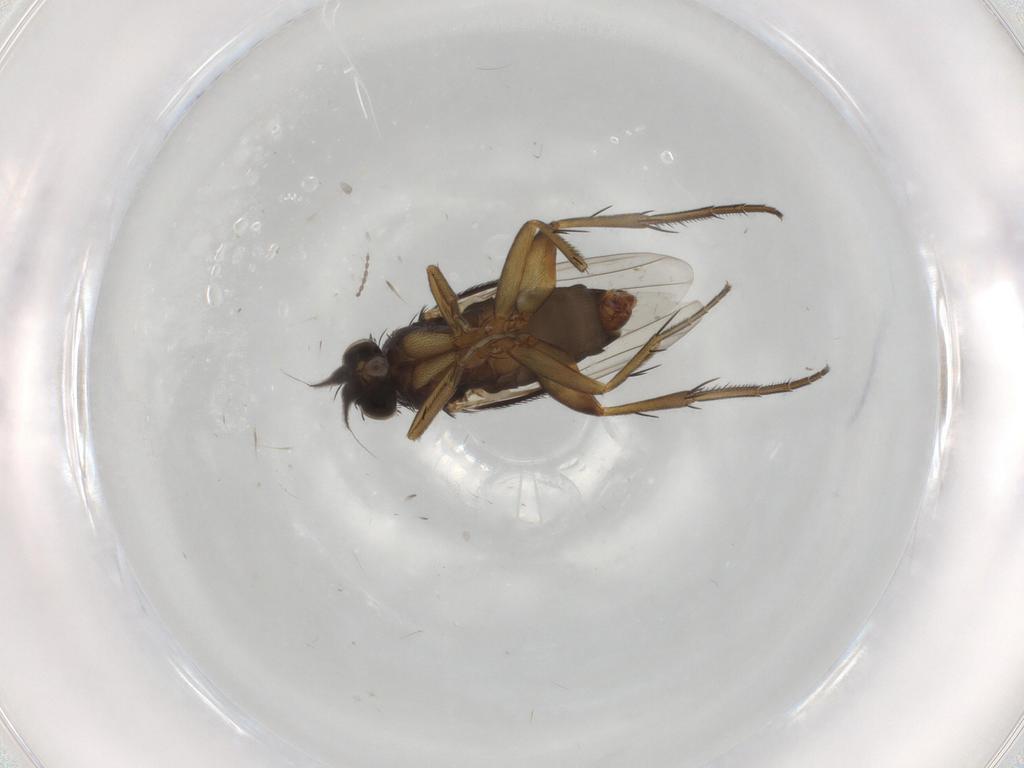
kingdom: Animalia
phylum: Arthropoda
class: Insecta
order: Diptera
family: Phoridae
